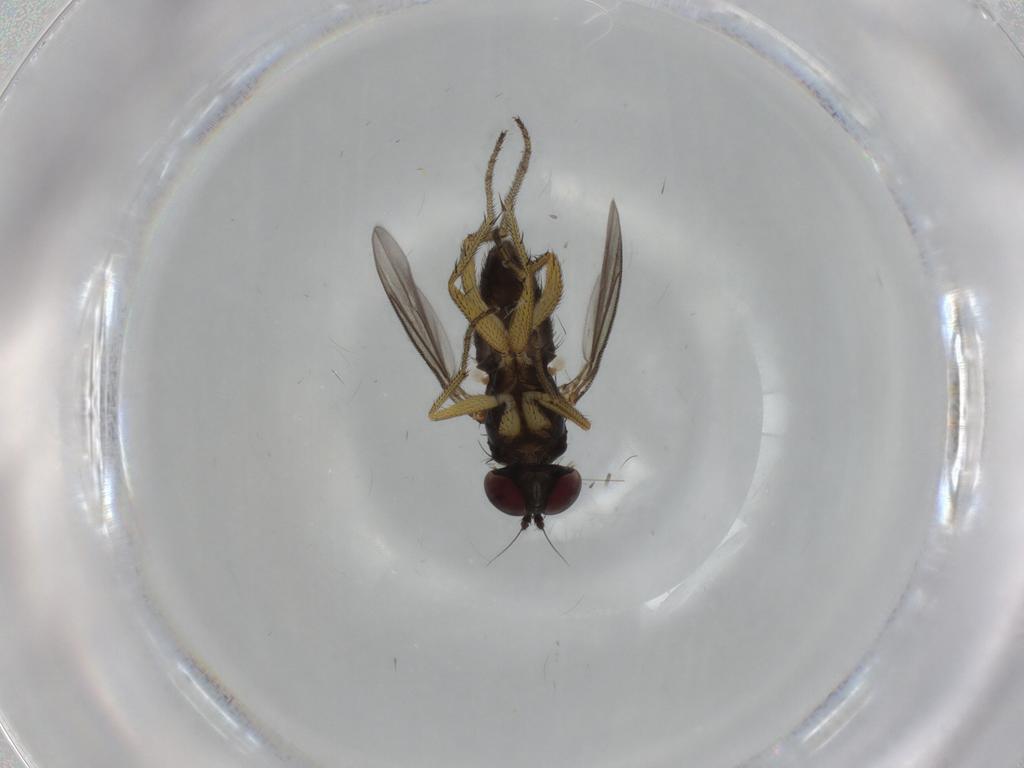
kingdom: Animalia
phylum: Arthropoda
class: Insecta
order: Diptera
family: Dolichopodidae
